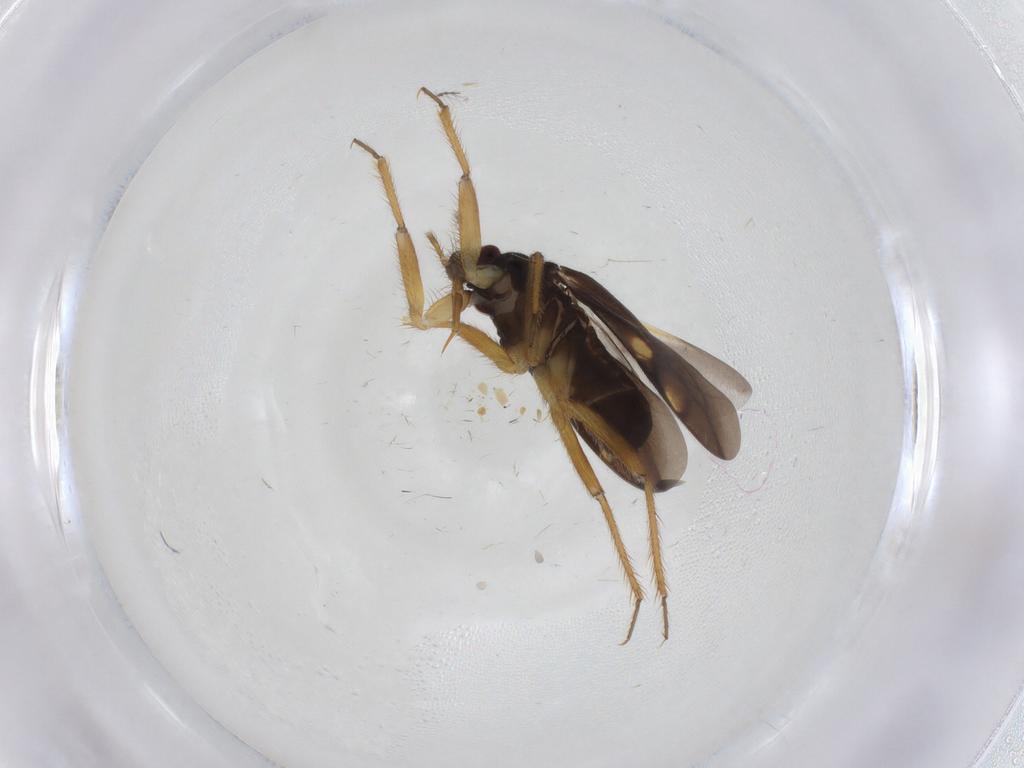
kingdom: Animalia
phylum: Arthropoda
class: Insecta
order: Hemiptera
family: Ceratocombidae
